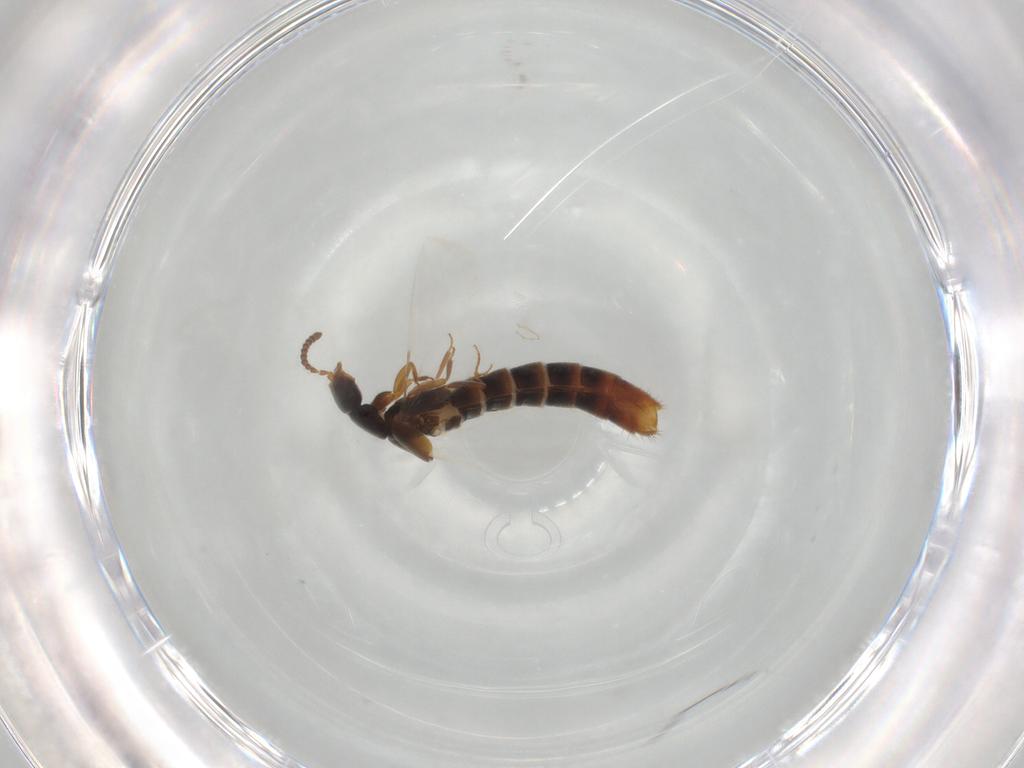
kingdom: Animalia
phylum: Arthropoda
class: Insecta
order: Coleoptera
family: Staphylinidae
